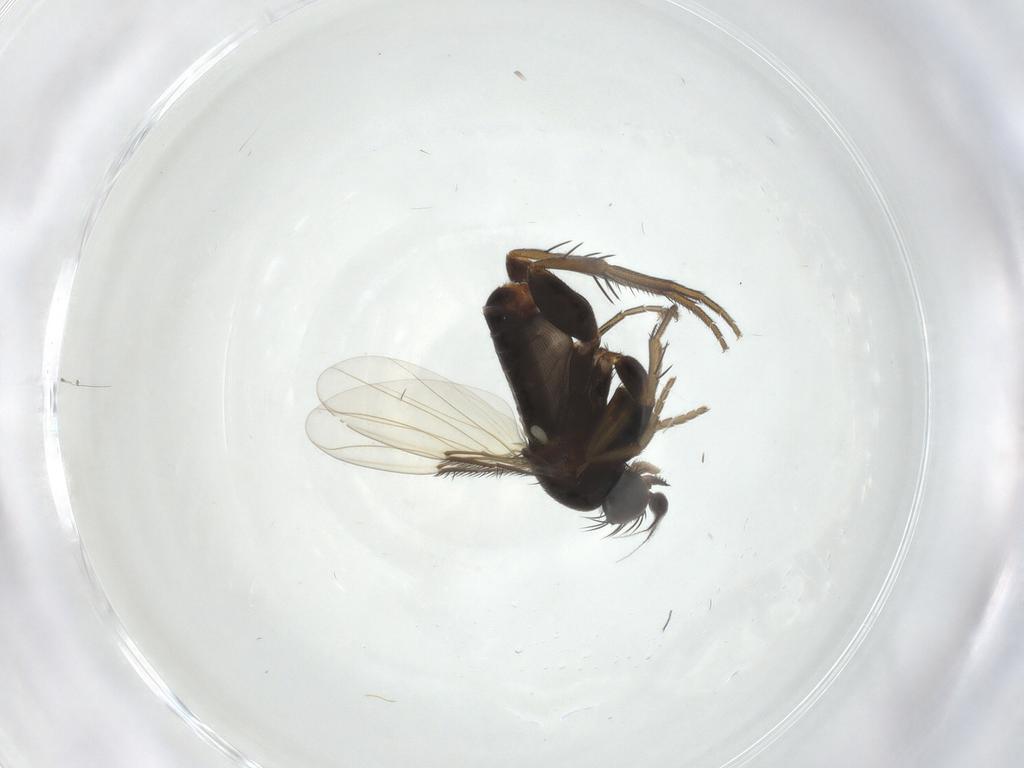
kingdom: Animalia
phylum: Arthropoda
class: Insecta
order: Diptera
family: Phoridae
